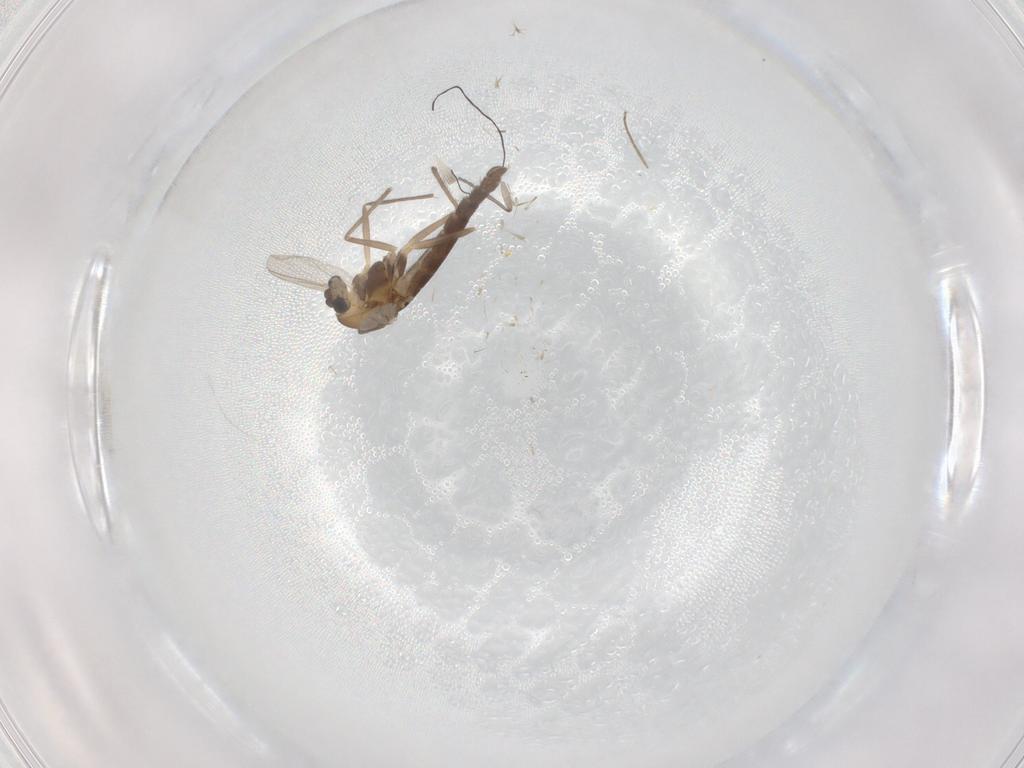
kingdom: Animalia
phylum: Arthropoda
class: Insecta
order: Diptera
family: Chironomidae
